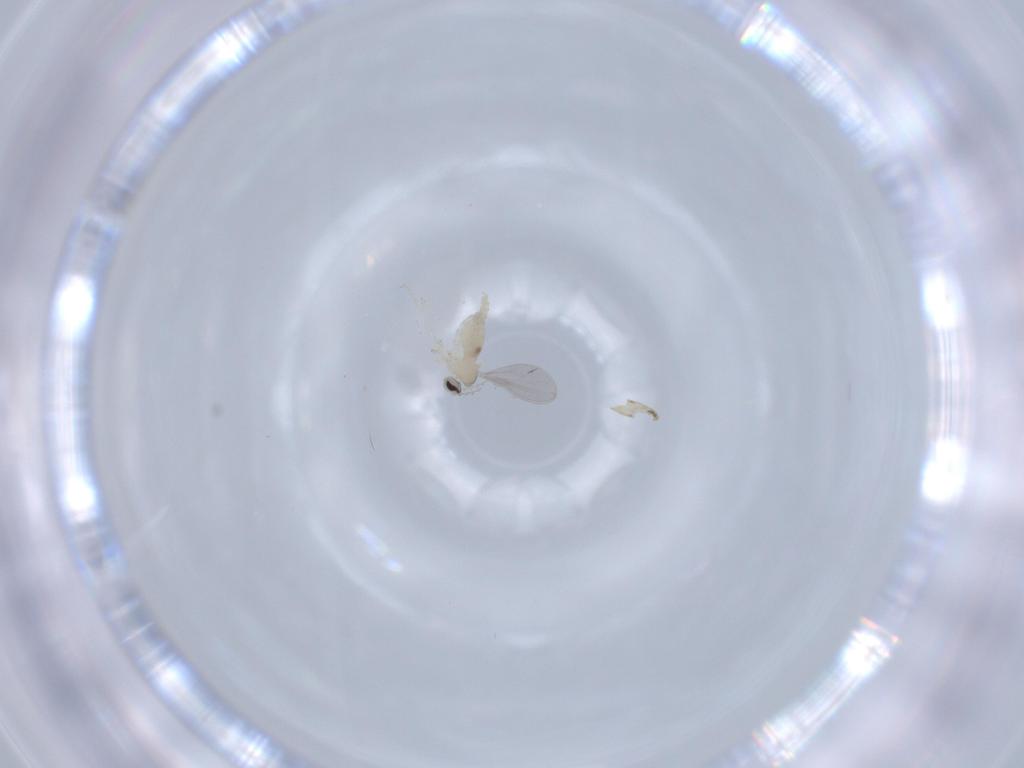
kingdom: Animalia
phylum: Arthropoda
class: Insecta
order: Diptera
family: Cecidomyiidae
